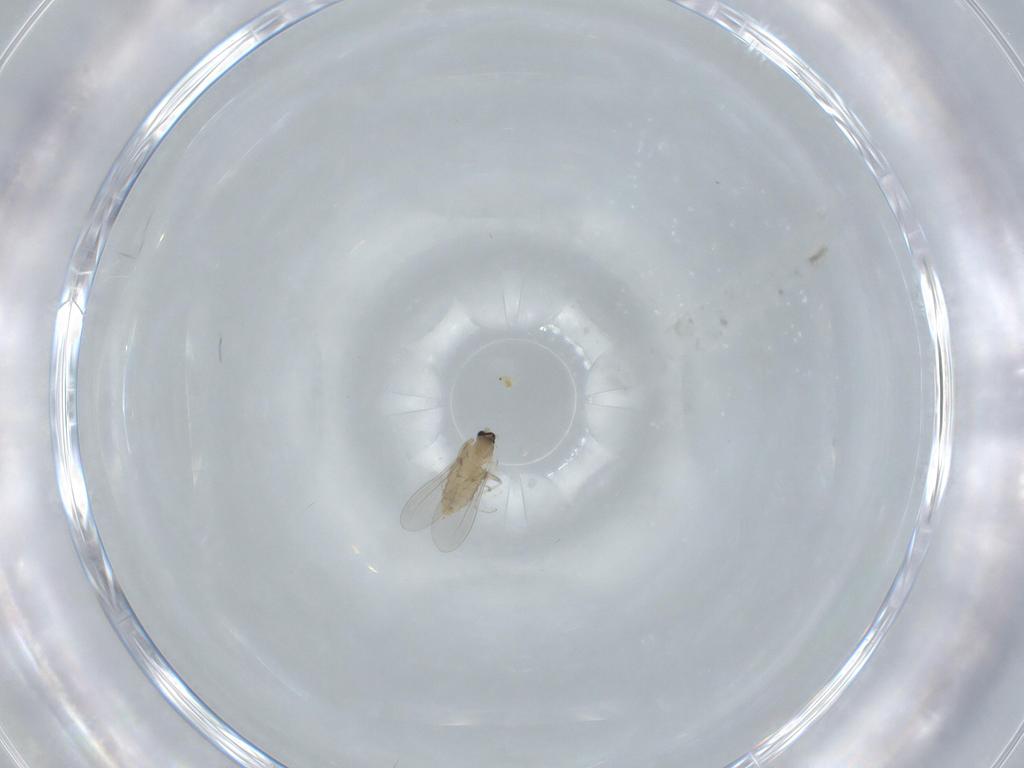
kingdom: Animalia
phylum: Arthropoda
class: Insecta
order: Diptera
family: Cecidomyiidae
